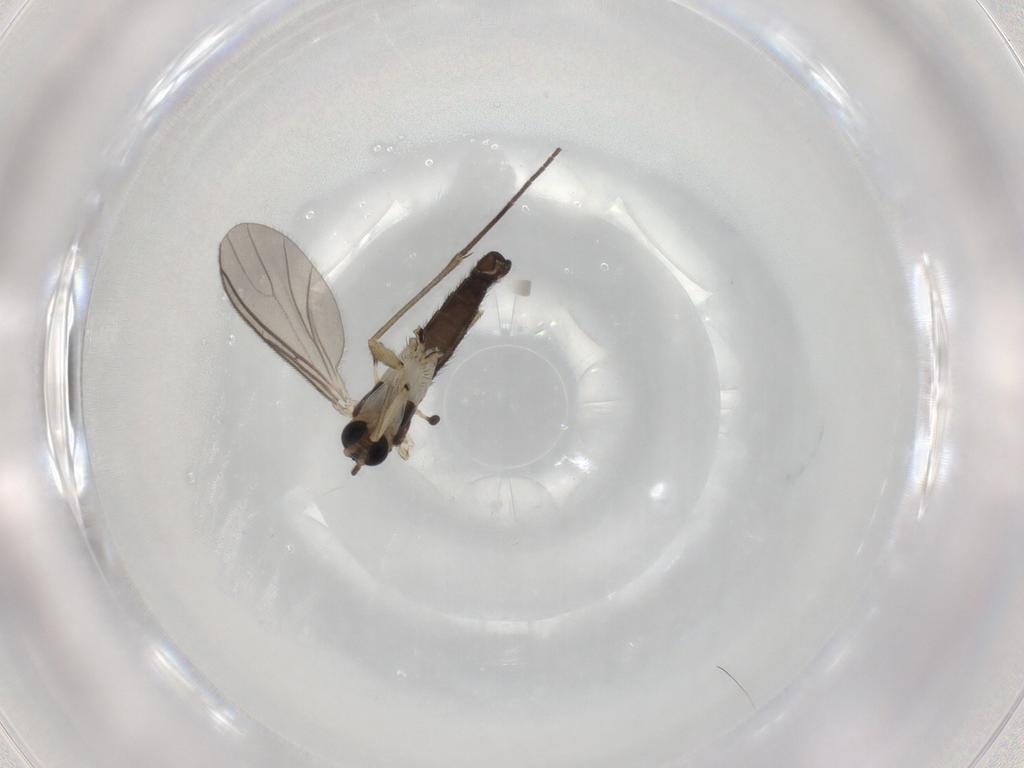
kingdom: Animalia
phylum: Arthropoda
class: Insecta
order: Diptera
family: Sciaridae
